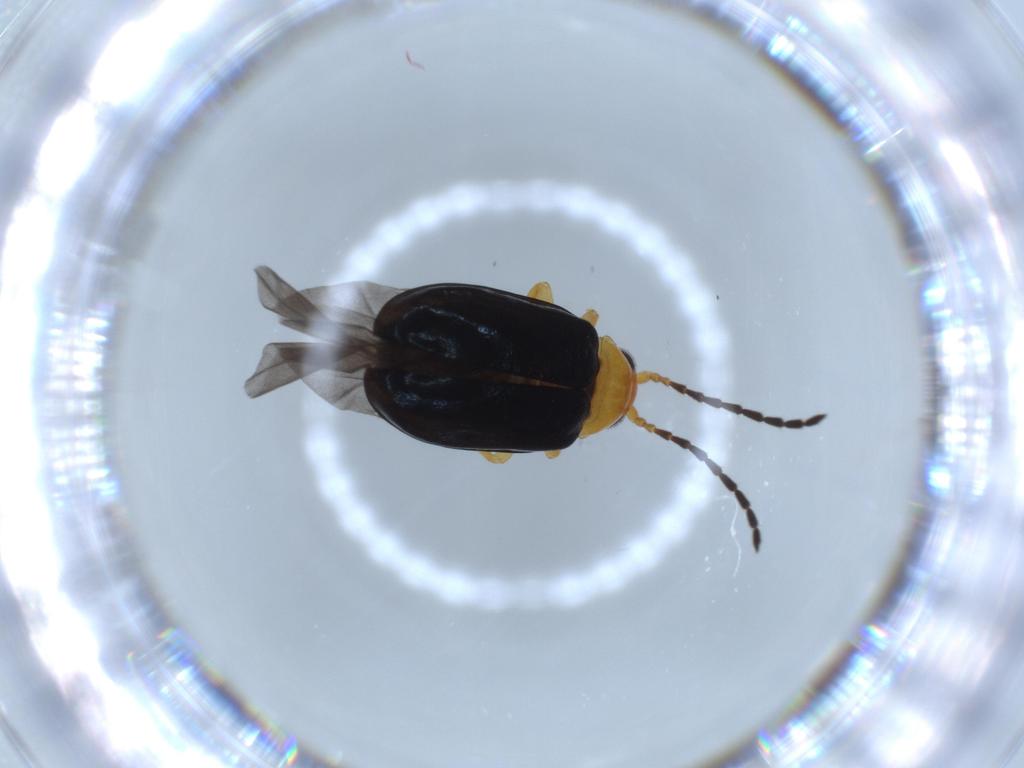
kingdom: Animalia
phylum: Arthropoda
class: Insecta
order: Coleoptera
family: Chrysomelidae
